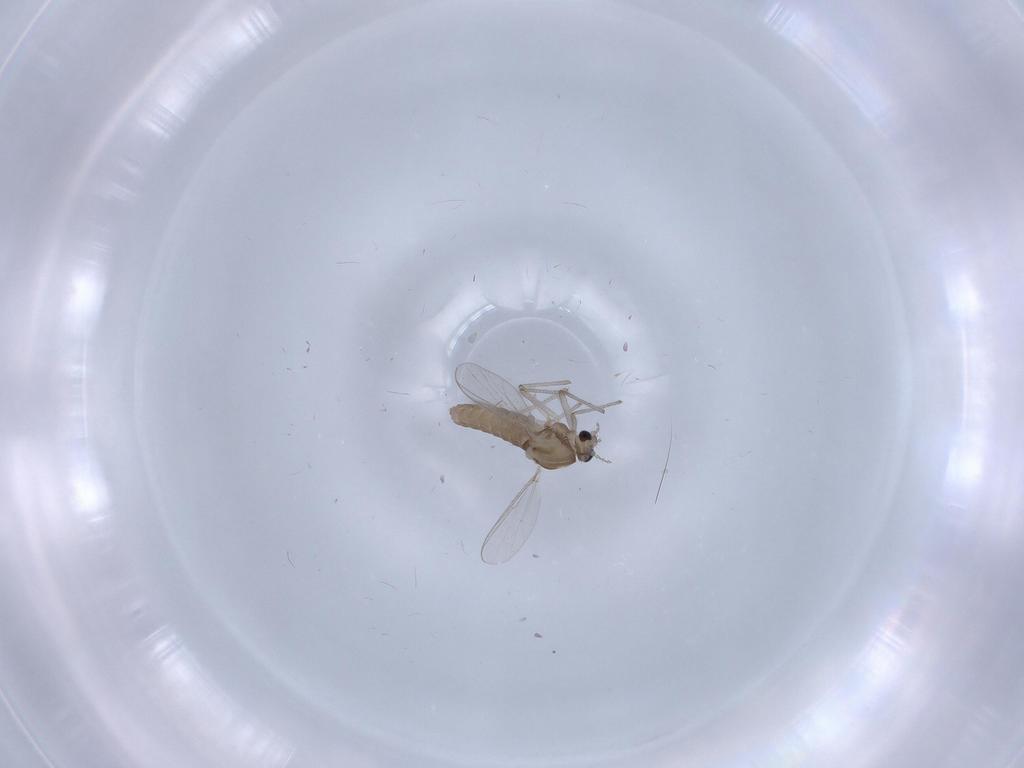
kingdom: Animalia
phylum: Arthropoda
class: Insecta
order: Diptera
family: Chironomidae
